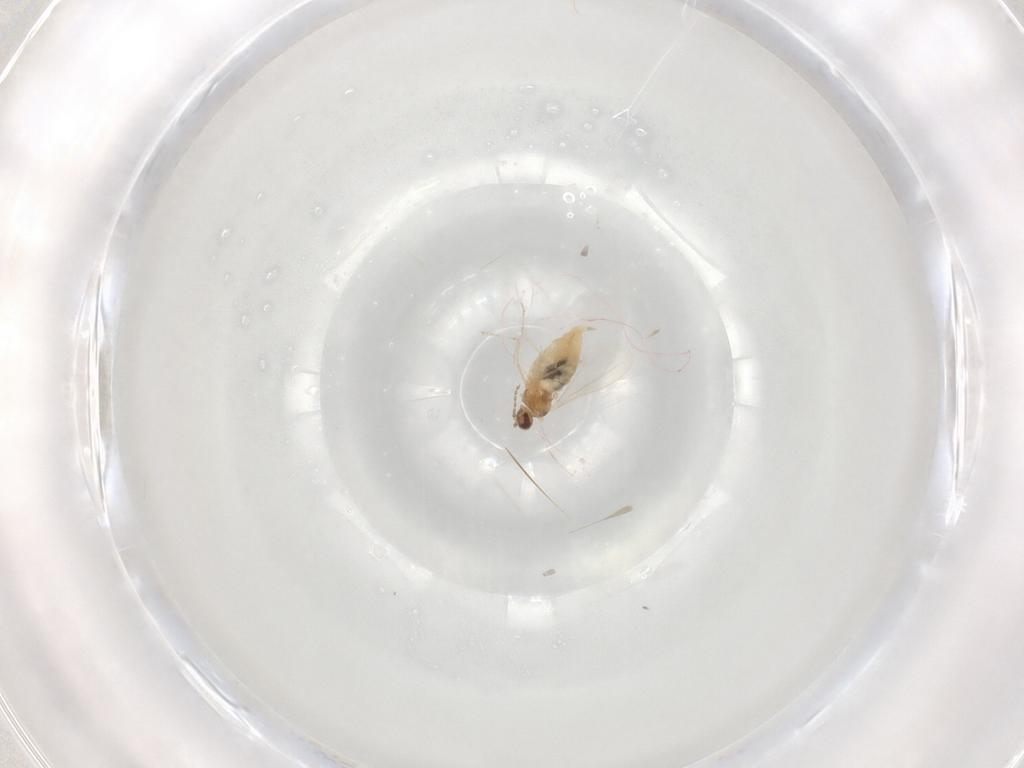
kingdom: Animalia
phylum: Arthropoda
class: Insecta
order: Diptera
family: Cecidomyiidae
